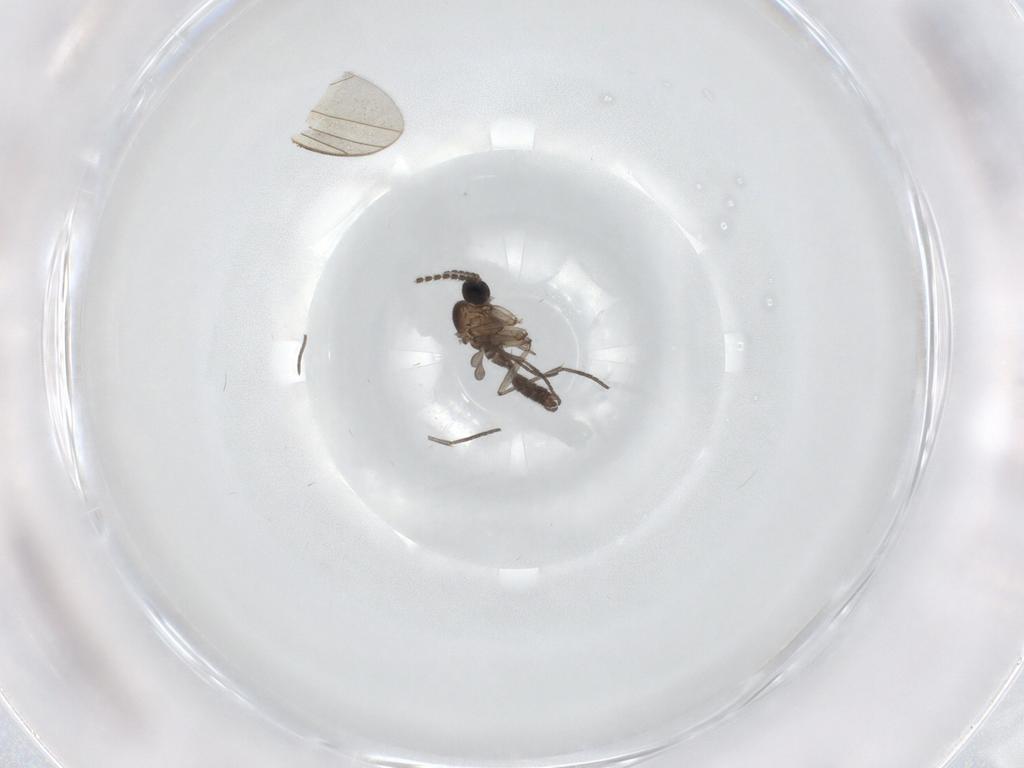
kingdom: Animalia
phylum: Arthropoda
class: Insecta
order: Diptera
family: Phoridae
